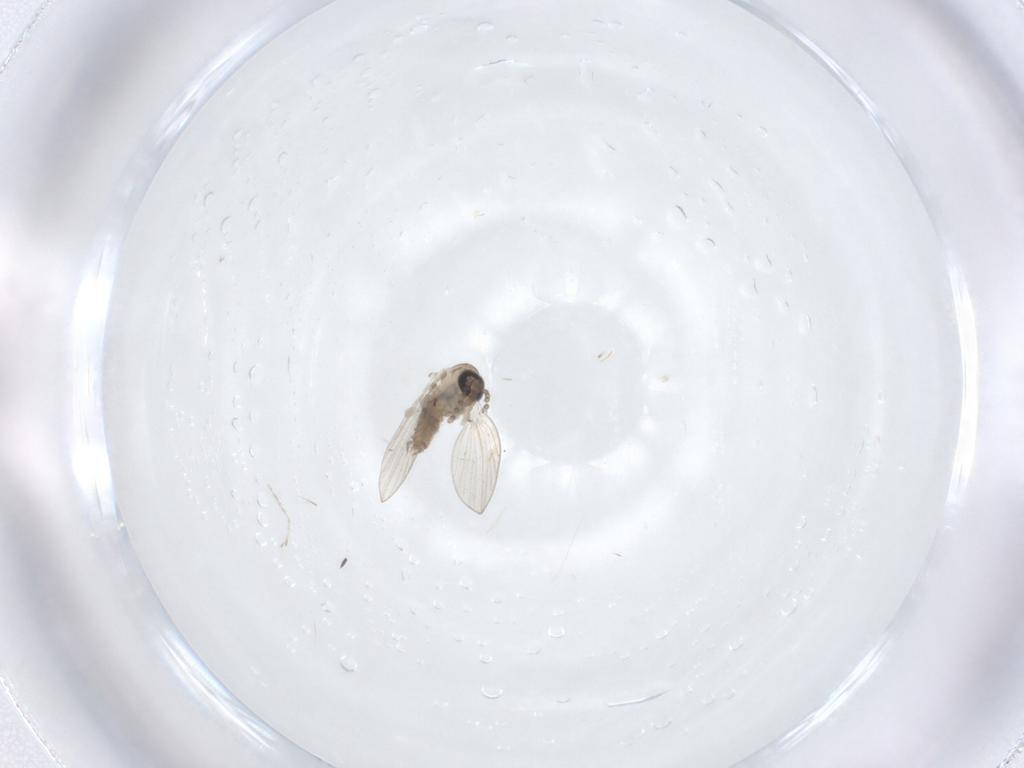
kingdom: Animalia
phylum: Arthropoda
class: Insecta
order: Diptera
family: Psychodidae
